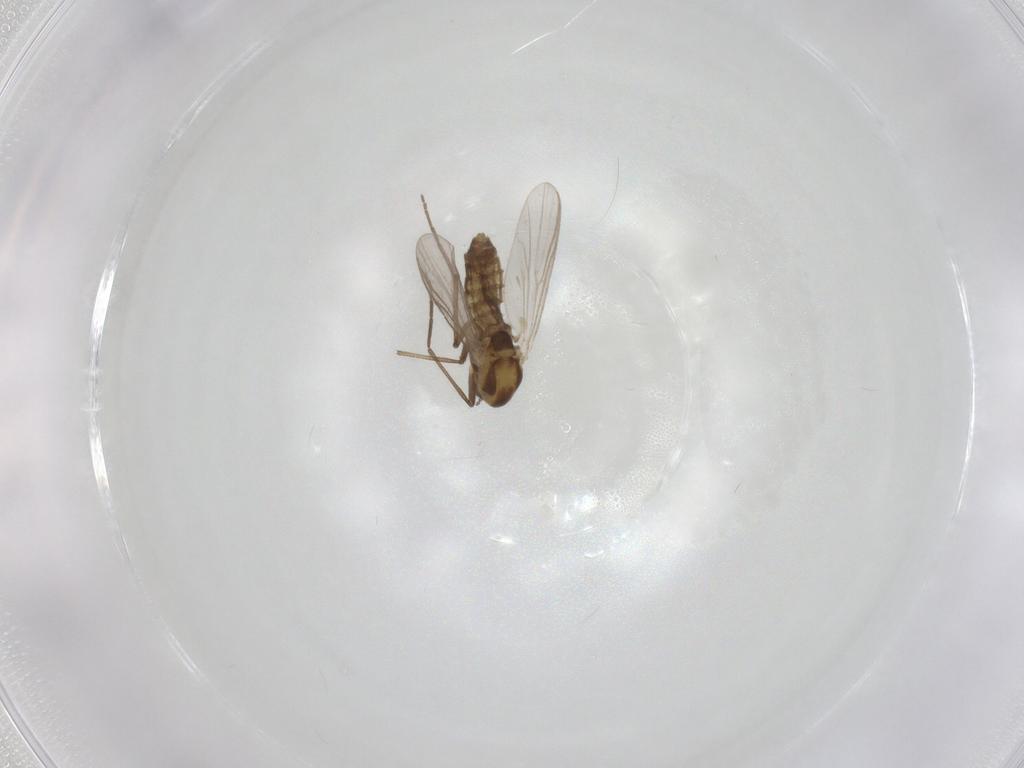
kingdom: Animalia
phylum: Arthropoda
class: Insecta
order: Diptera
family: Chironomidae
